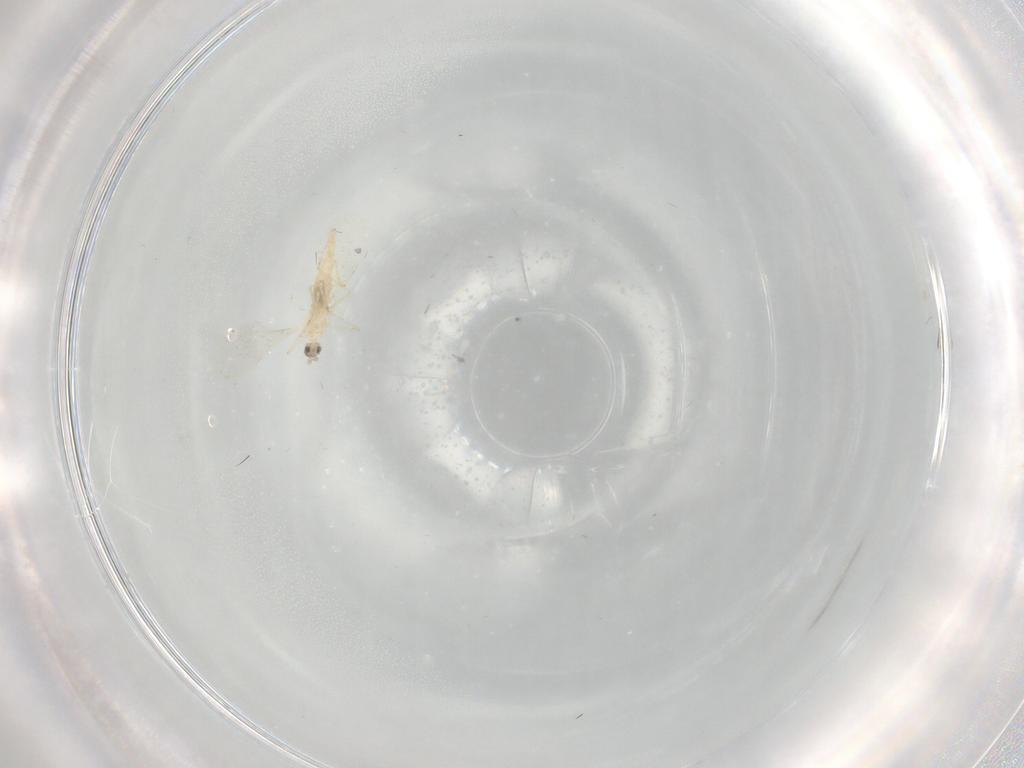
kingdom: Animalia
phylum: Arthropoda
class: Insecta
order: Diptera
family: Cecidomyiidae
